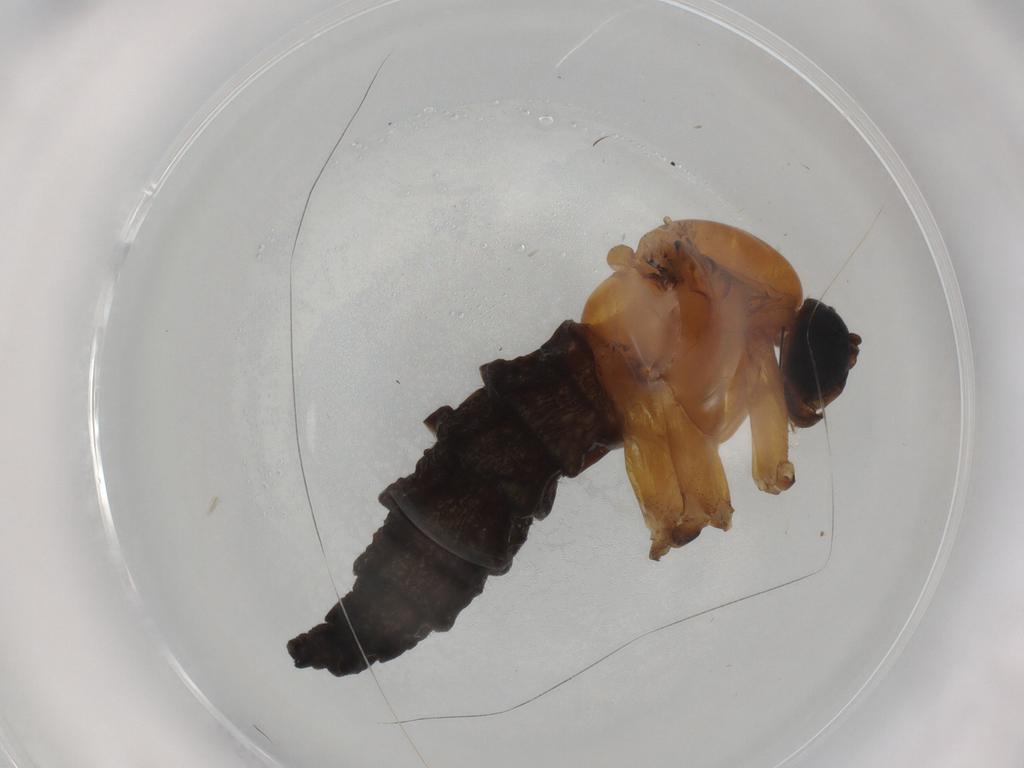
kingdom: Animalia
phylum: Arthropoda
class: Insecta
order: Diptera
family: Sciaridae
